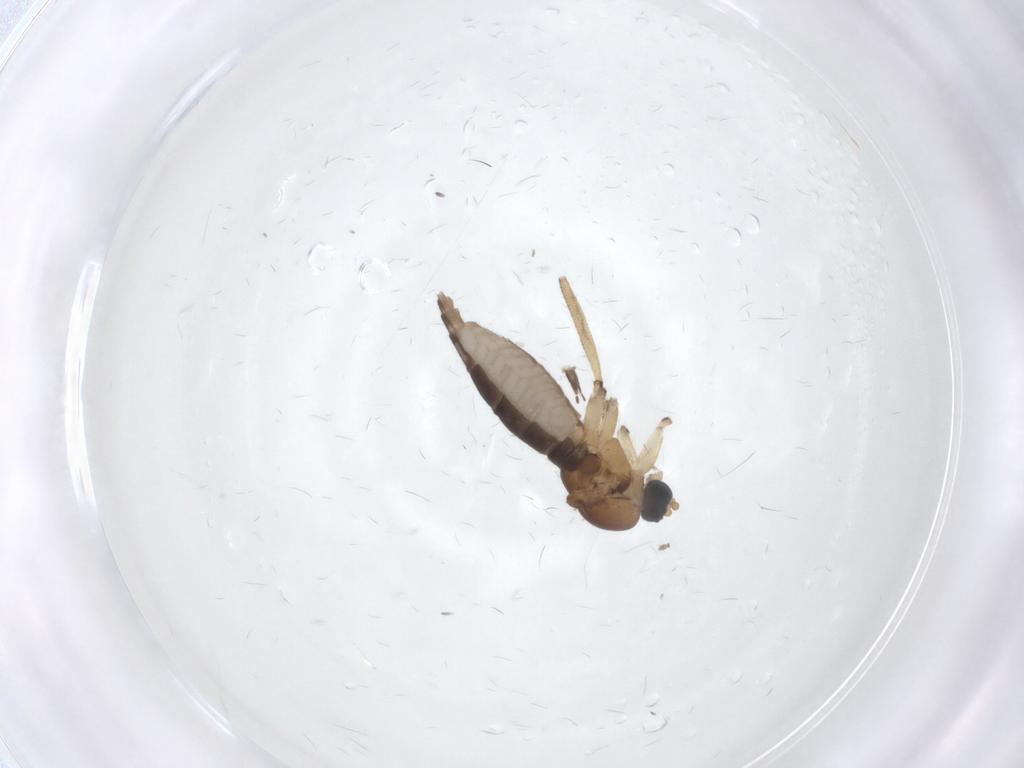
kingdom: Animalia
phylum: Arthropoda
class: Insecta
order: Diptera
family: Sciaridae
